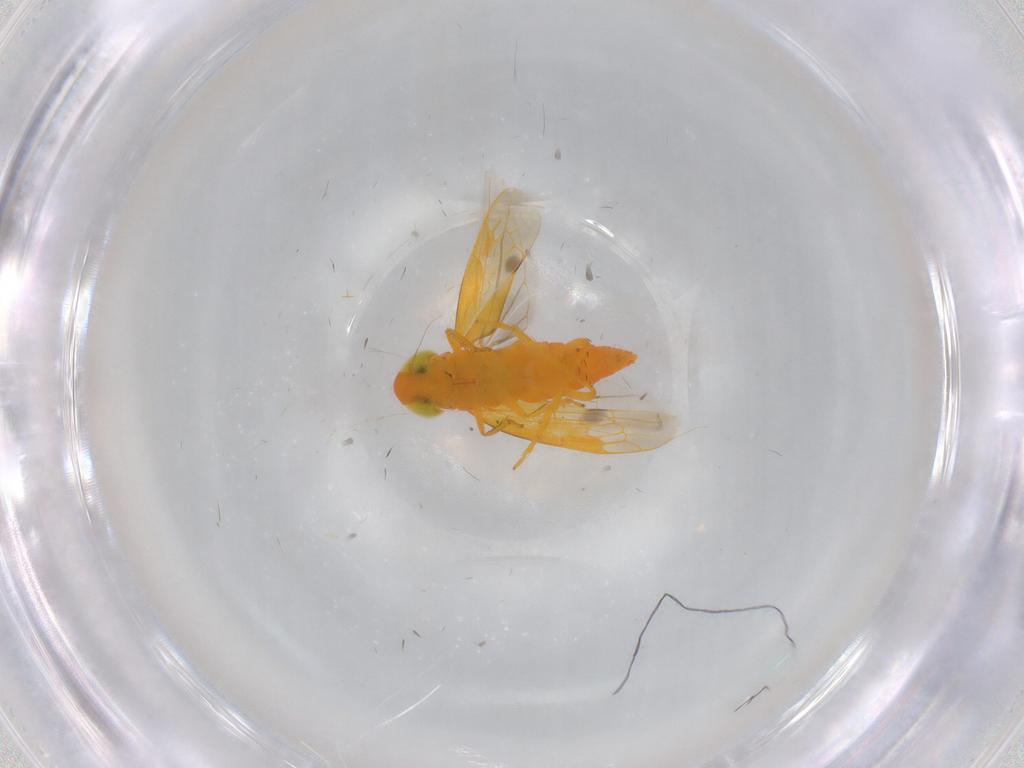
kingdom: Animalia
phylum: Arthropoda
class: Insecta
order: Hemiptera
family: Cicadellidae
